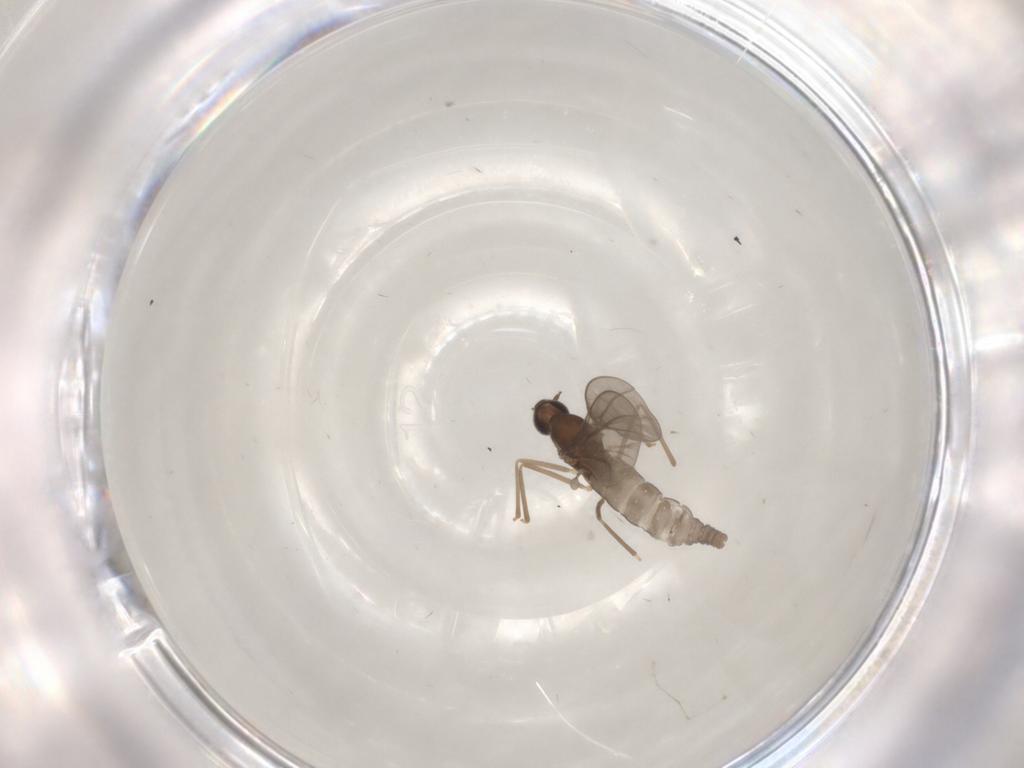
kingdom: Animalia
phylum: Arthropoda
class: Insecta
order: Diptera
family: Cecidomyiidae
